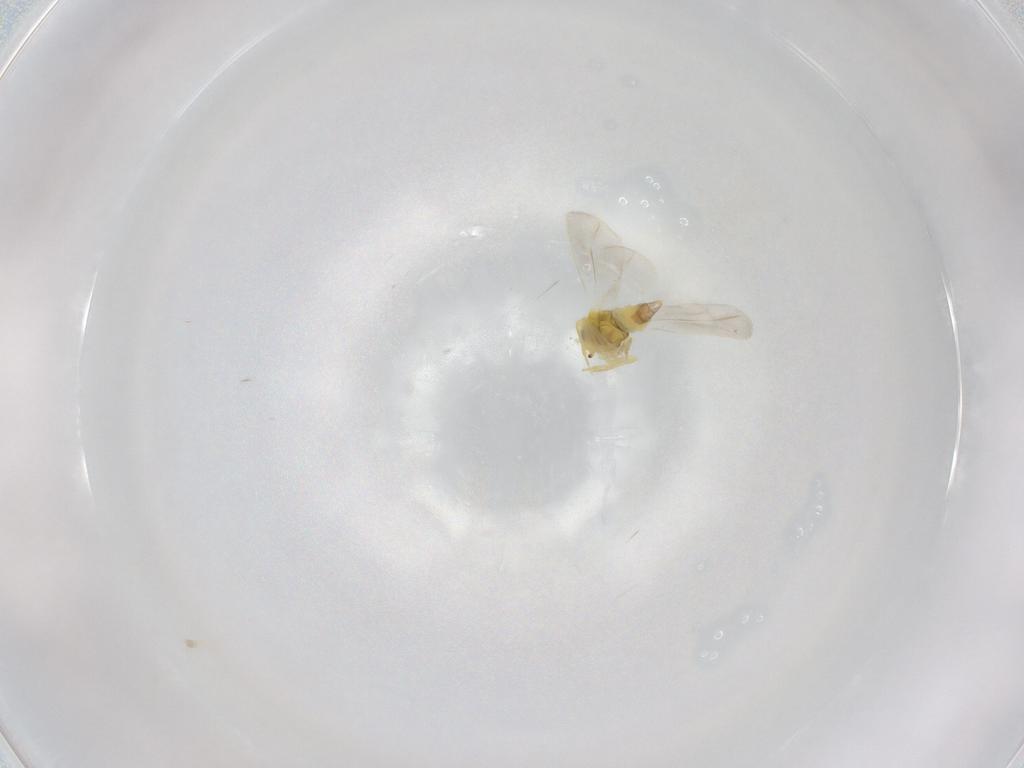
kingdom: Animalia
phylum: Arthropoda
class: Insecta
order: Hemiptera
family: Aleyrodidae
